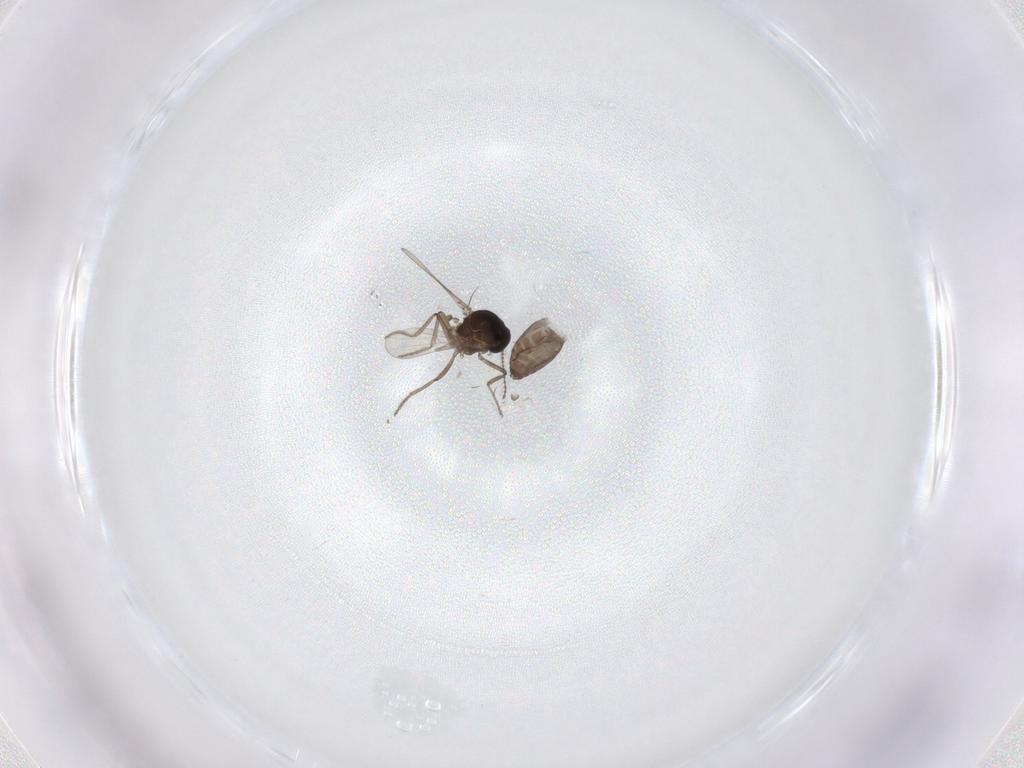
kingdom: Animalia
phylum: Arthropoda
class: Insecta
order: Diptera
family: Ceratopogonidae
